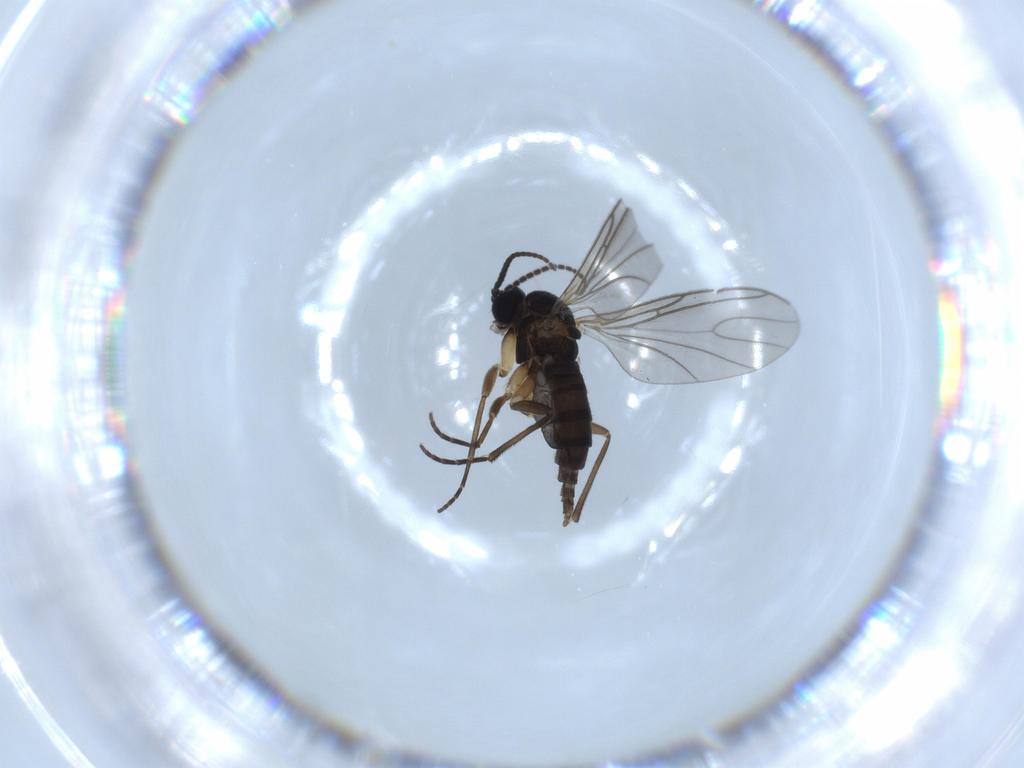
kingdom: Animalia
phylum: Arthropoda
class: Insecta
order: Diptera
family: Sciaridae
